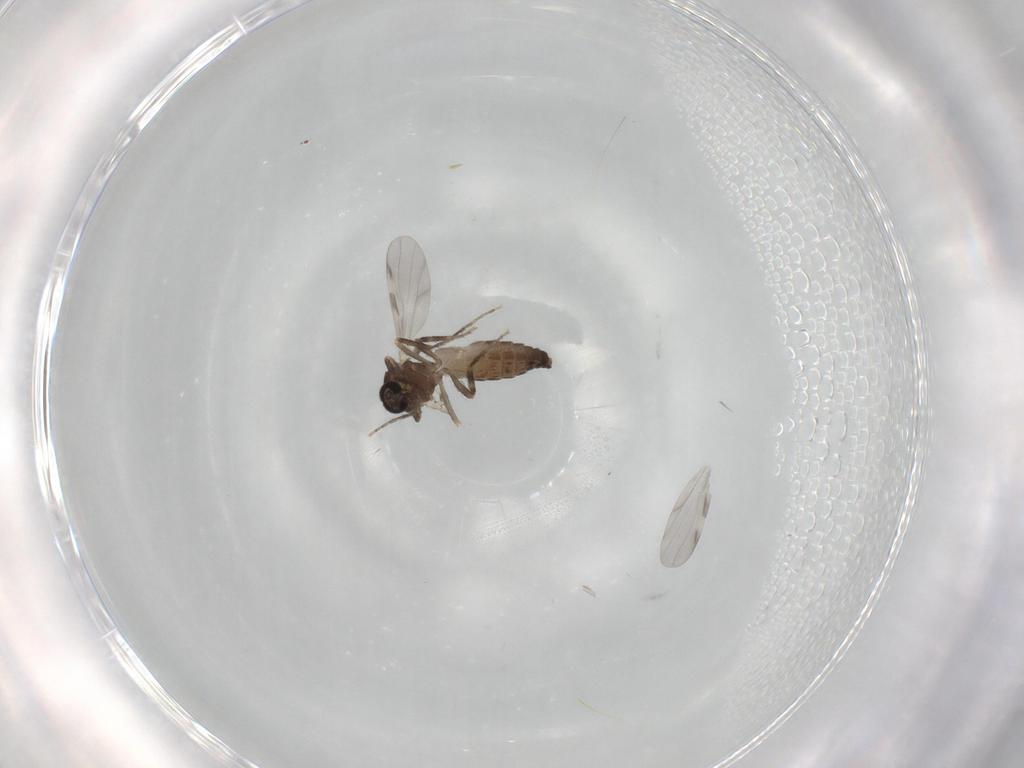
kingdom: Animalia
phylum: Arthropoda
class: Insecta
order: Diptera
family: Ceratopogonidae
